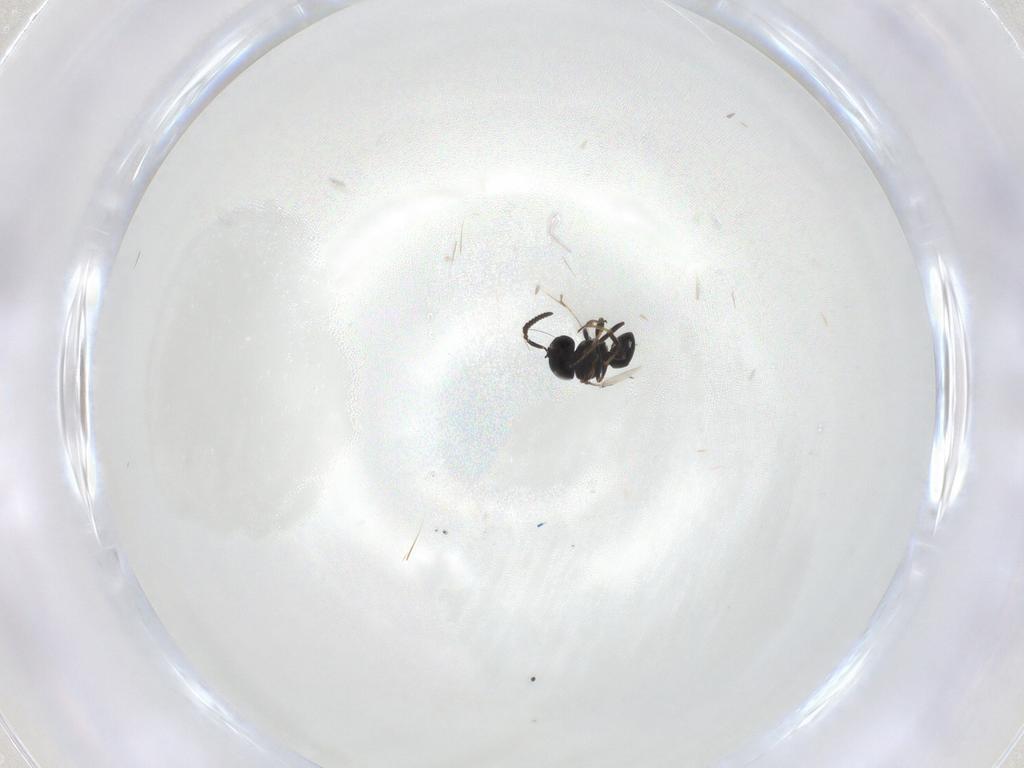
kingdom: Animalia
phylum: Arthropoda
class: Insecta
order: Hymenoptera
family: Scelionidae
